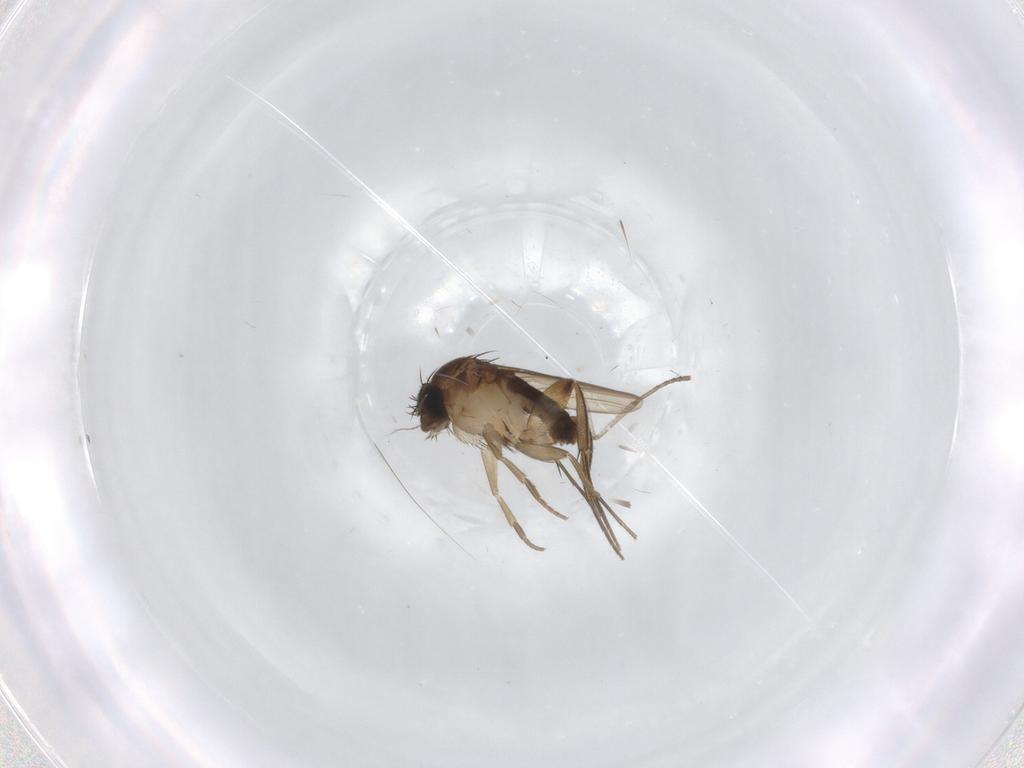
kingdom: Animalia
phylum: Arthropoda
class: Insecta
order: Diptera
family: Phoridae
